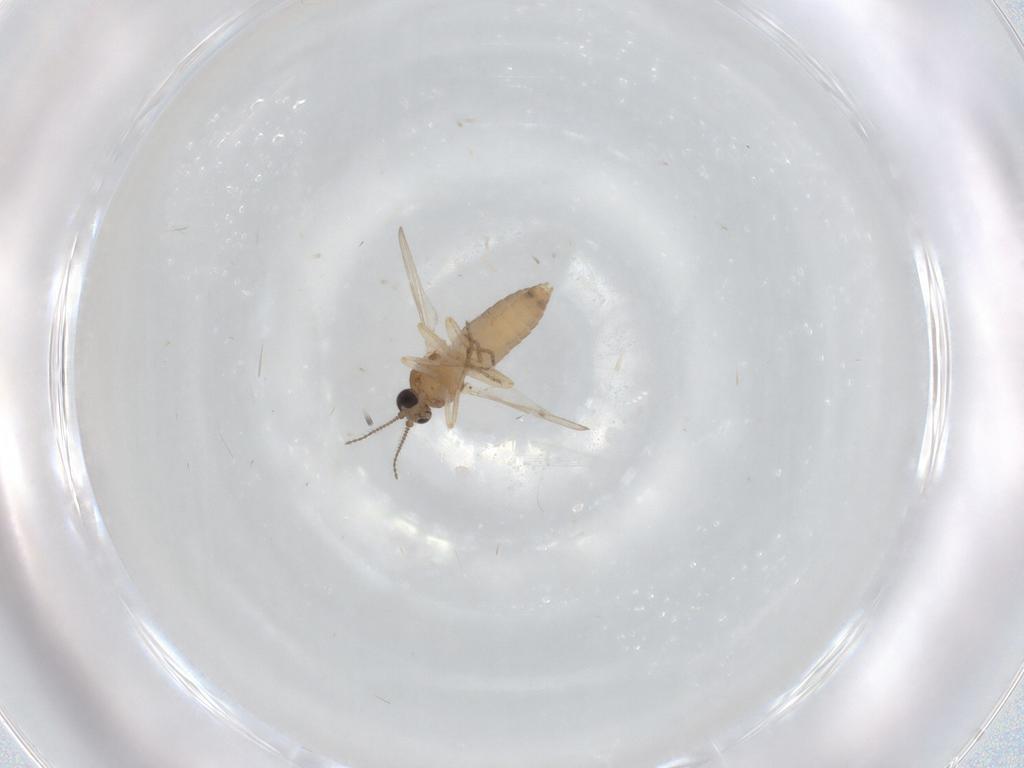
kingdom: Animalia
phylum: Arthropoda
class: Insecta
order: Diptera
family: Ceratopogonidae
